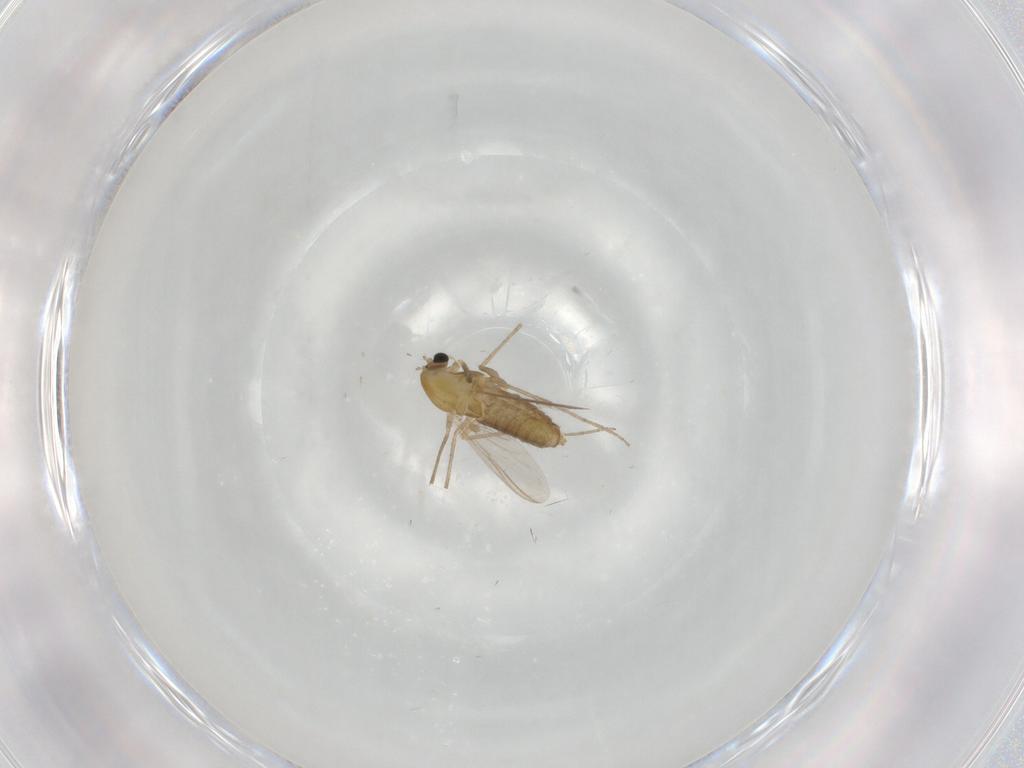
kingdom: Animalia
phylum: Arthropoda
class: Insecta
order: Diptera
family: Chironomidae
